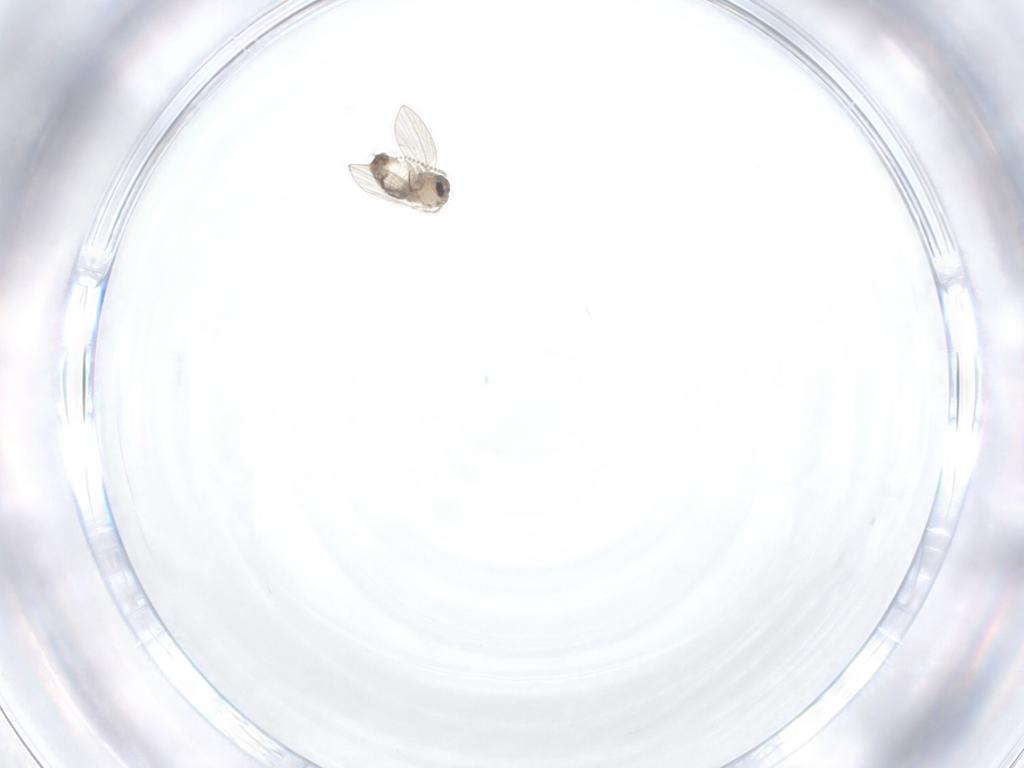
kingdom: Animalia
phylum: Arthropoda
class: Insecta
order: Diptera
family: Psychodidae
